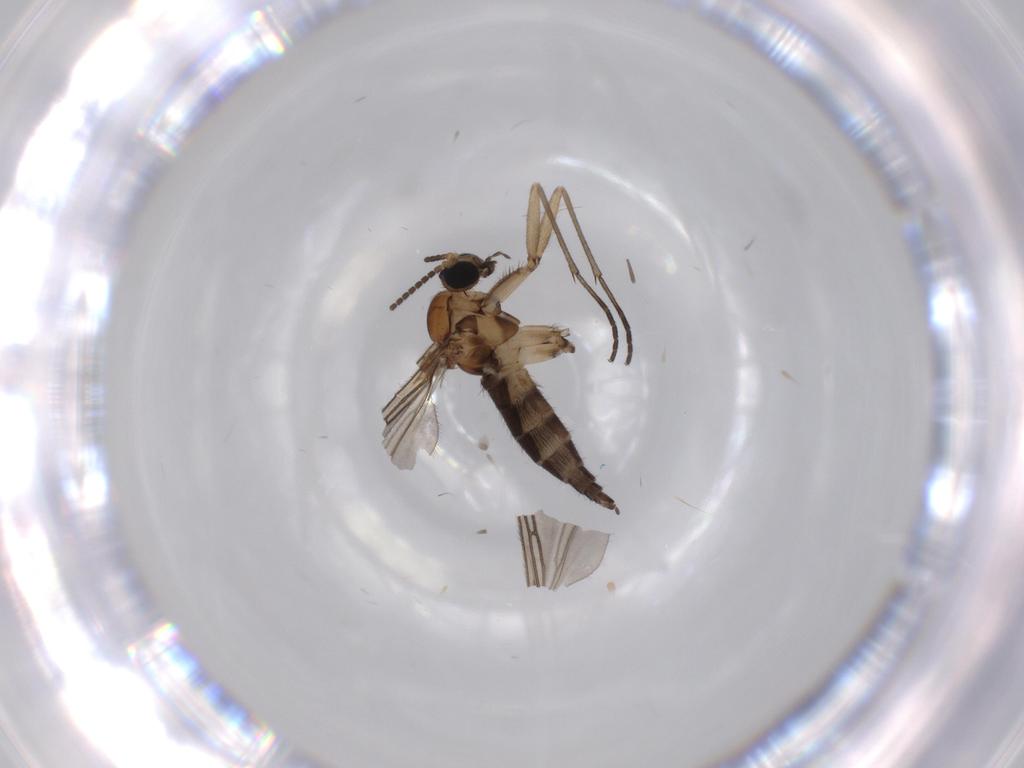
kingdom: Animalia
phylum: Arthropoda
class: Insecta
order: Diptera
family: Sciaridae
